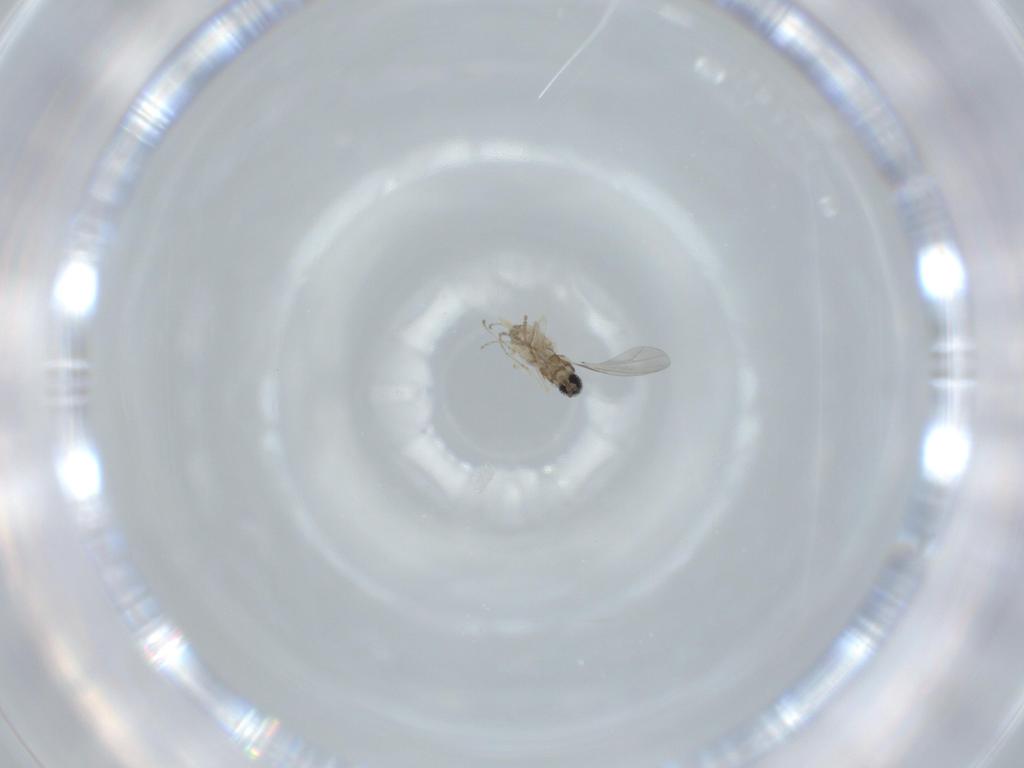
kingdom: Animalia
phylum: Arthropoda
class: Insecta
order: Diptera
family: Cecidomyiidae
